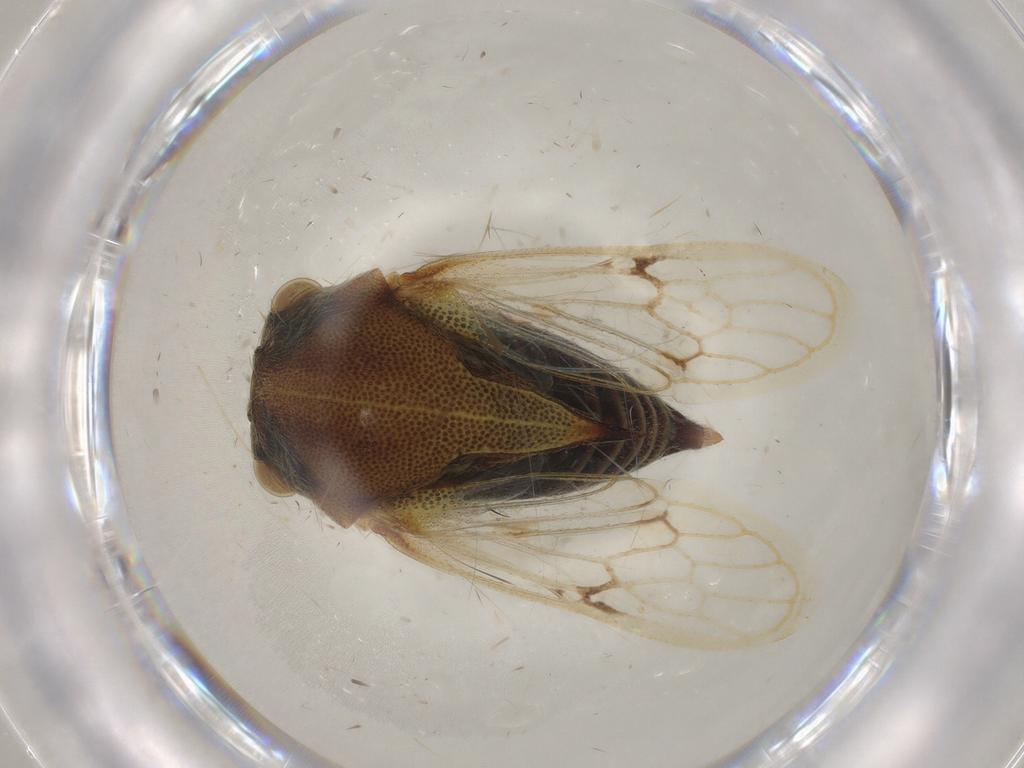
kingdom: Animalia
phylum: Arthropoda
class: Insecta
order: Hemiptera
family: Membracidae
